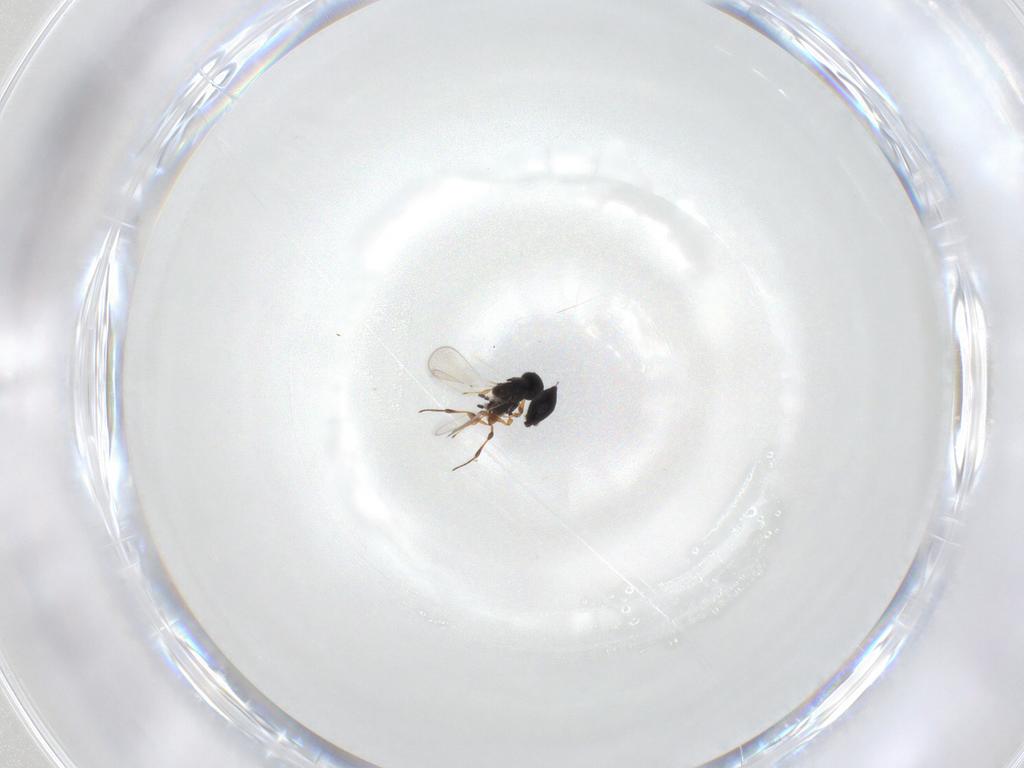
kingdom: Animalia
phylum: Arthropoda
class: Insecta
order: Hymenoptera
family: Platygastridae
